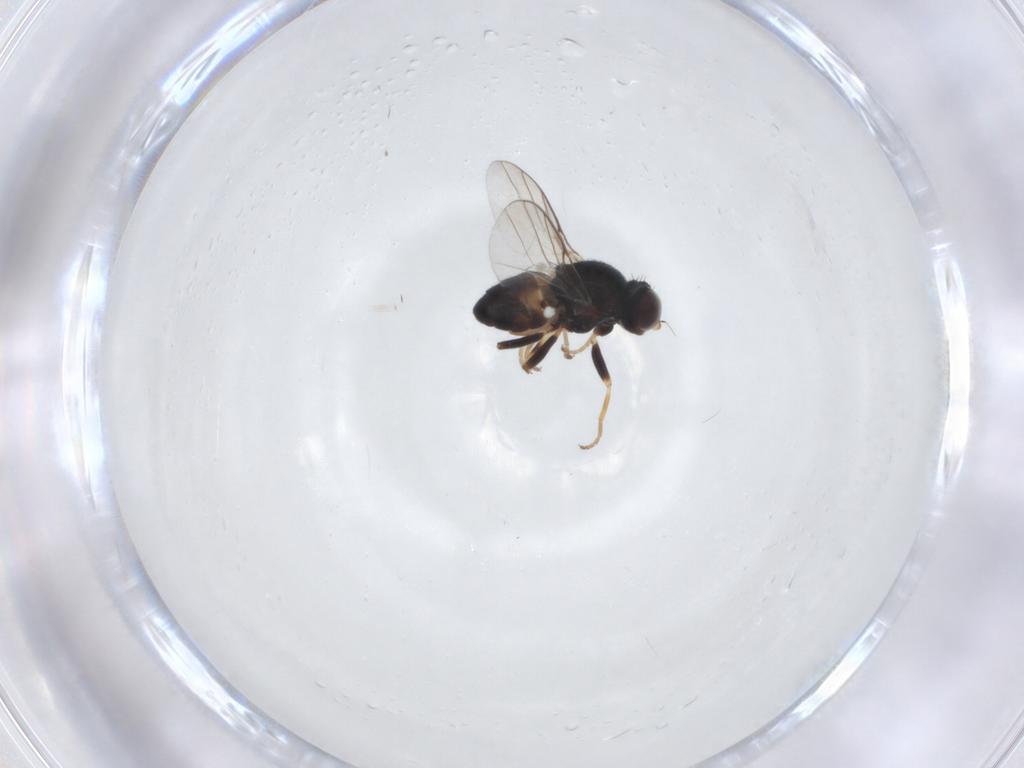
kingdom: Animalia
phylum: Arthropoda
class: Insecta
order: Diptera
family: Chloropidae
